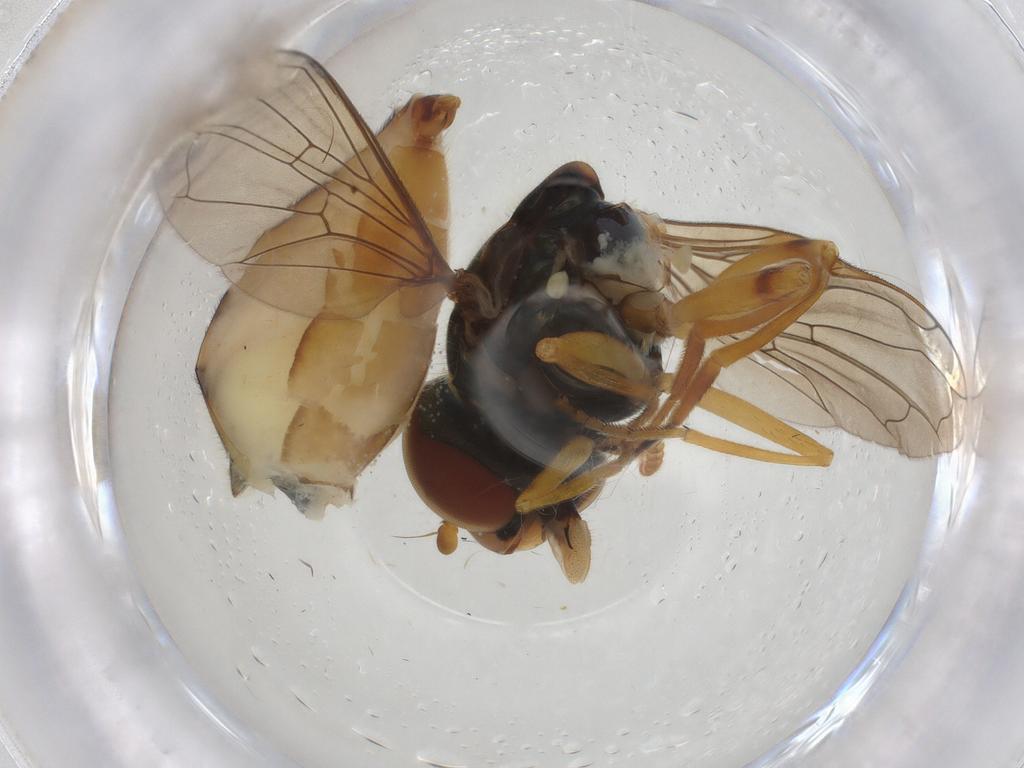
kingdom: Animalia
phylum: Arthropoda
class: Insecta
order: Diptera
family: Syrphidae
